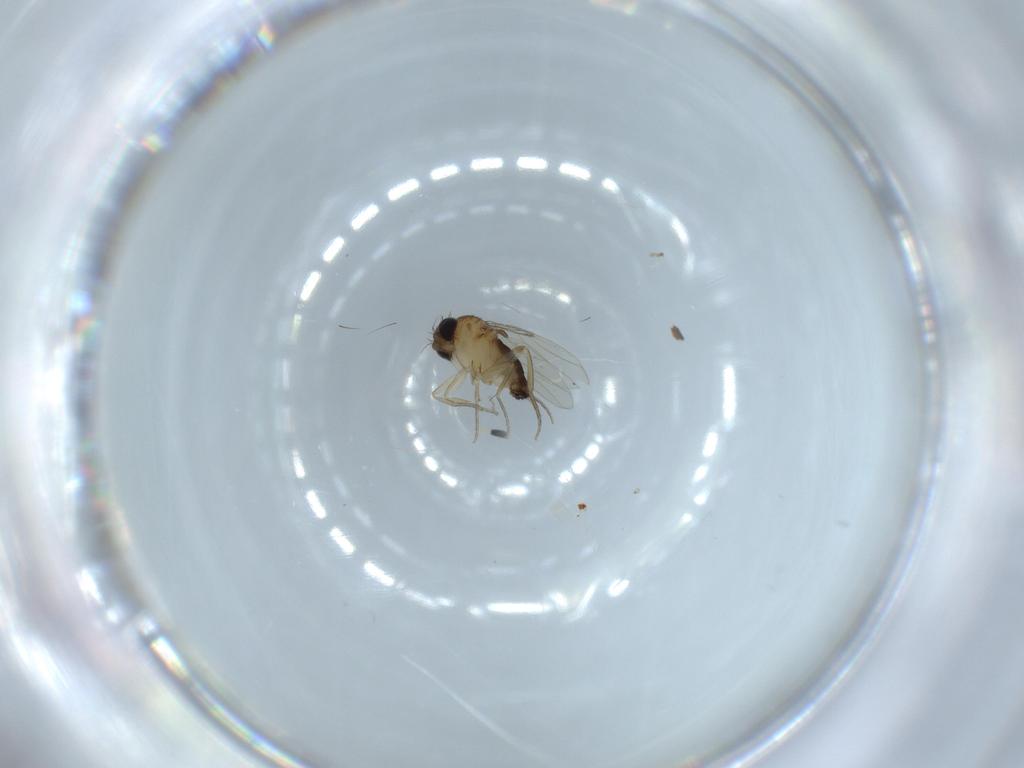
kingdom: Animalia
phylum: Arthropoda
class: Insecta
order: Diptera
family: Phoridae
